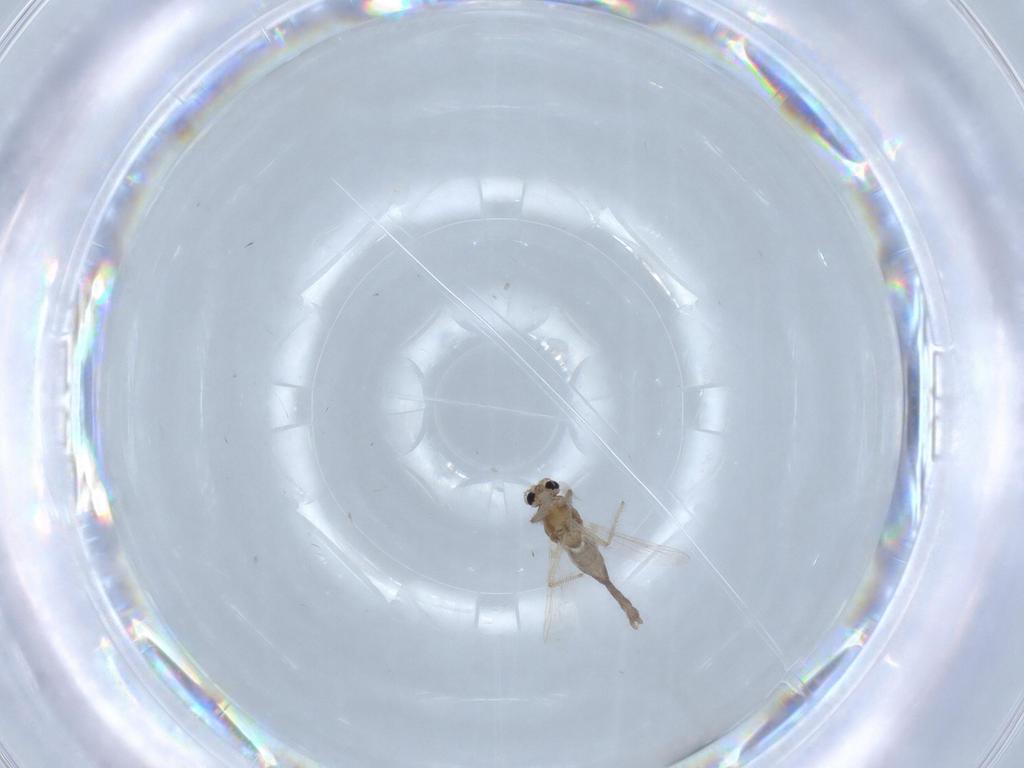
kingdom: Animalia
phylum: Arthropoda
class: Insecta
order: Diptera
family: Chironomidae
